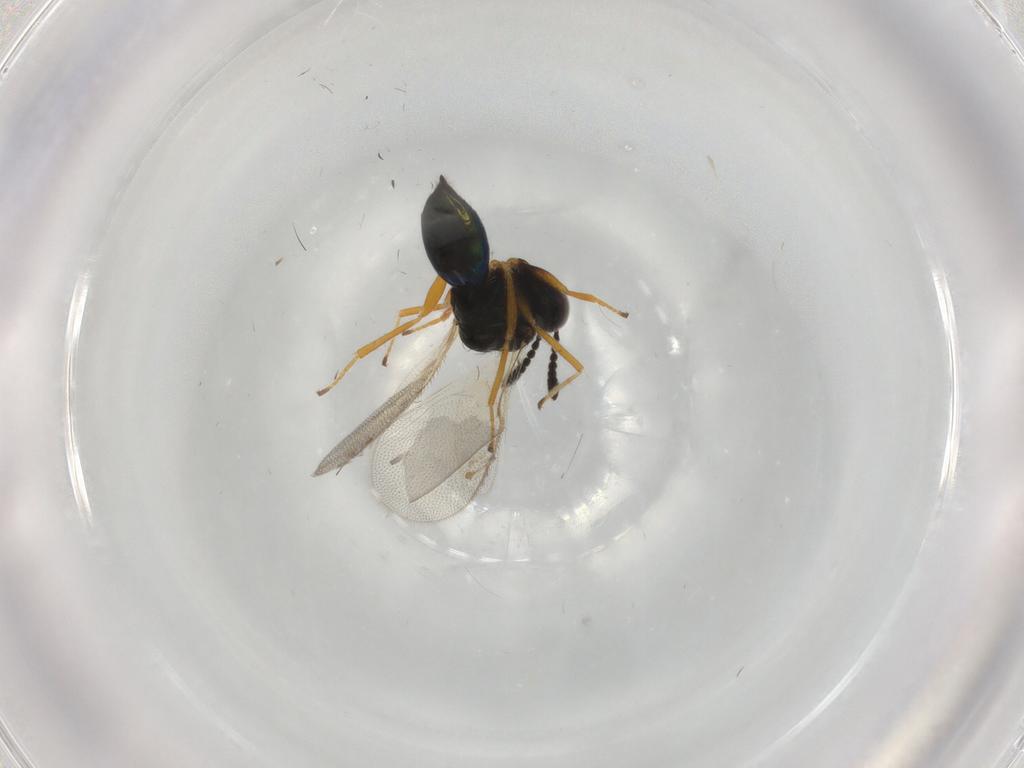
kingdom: Animalia
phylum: Arthropoda
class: Insecta
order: Hymenoptera
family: Pteromalidae
